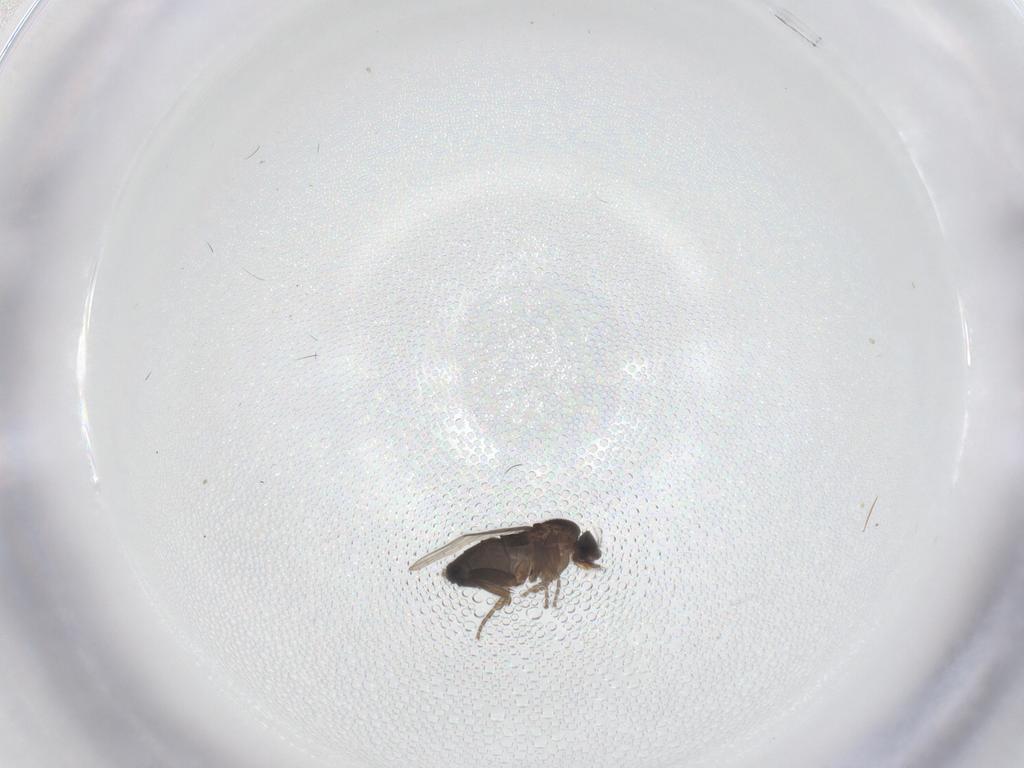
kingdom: Animalia
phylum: Arthropoda
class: Insecta
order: Diptera
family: Phoridae
